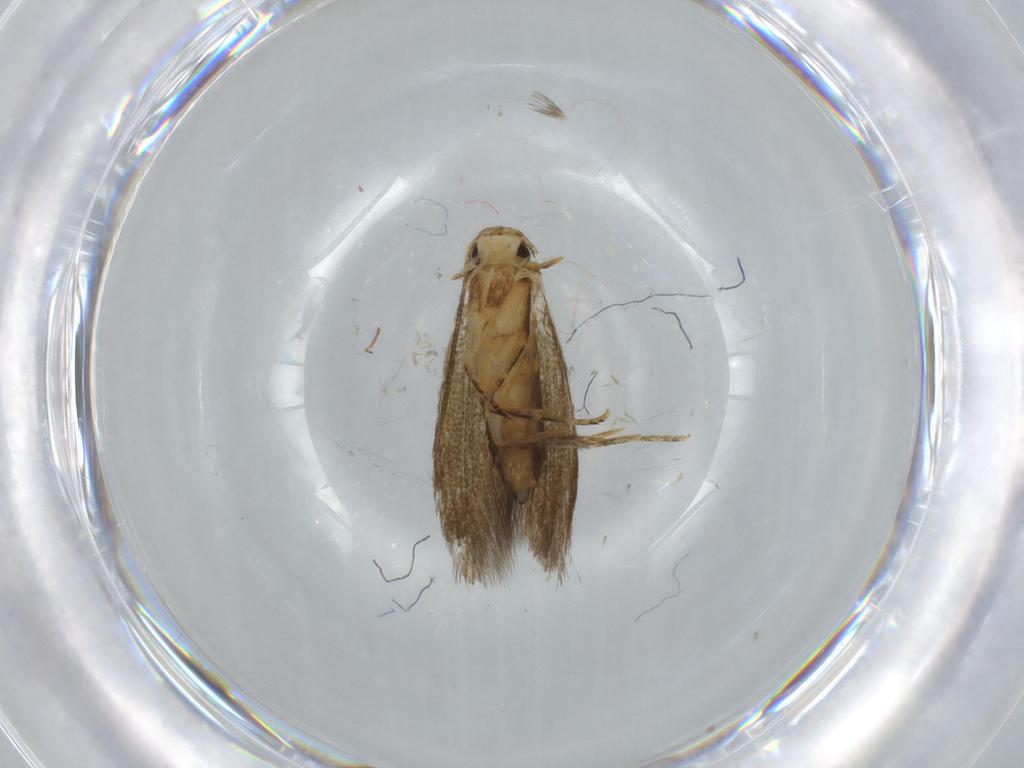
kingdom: Animalia
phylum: Arthropoda
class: Insecta
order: Lepidoptera
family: Tineidae
